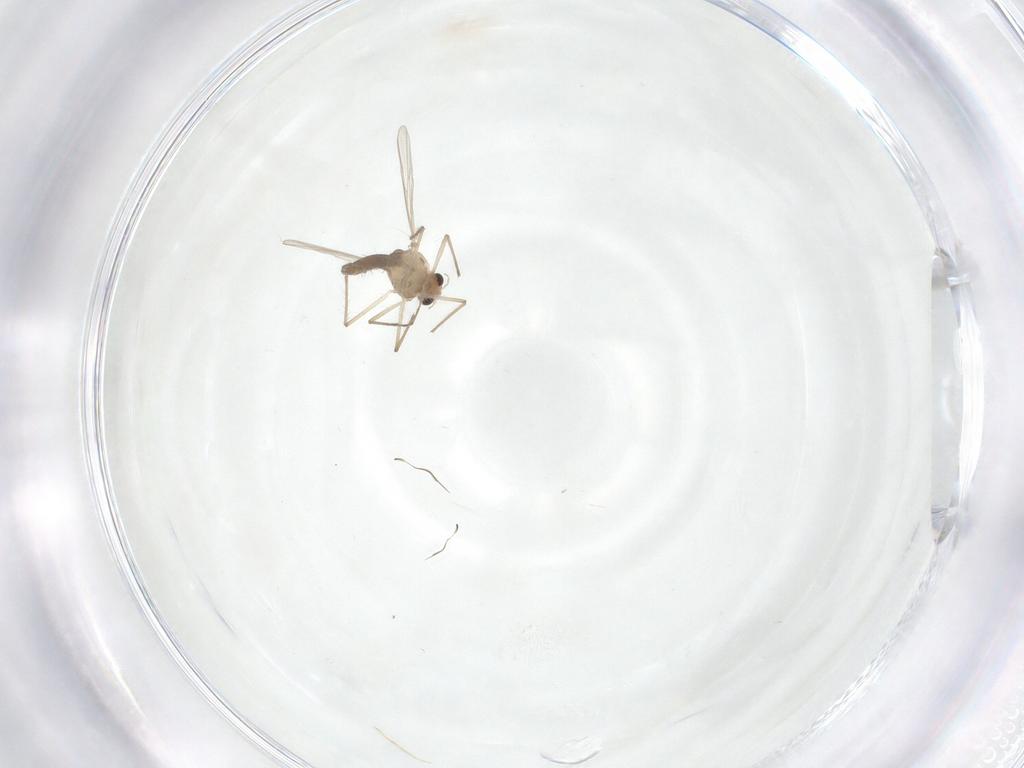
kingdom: Animalia
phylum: Arthropoda
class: Insecta
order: Diptera
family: Chironomidae
